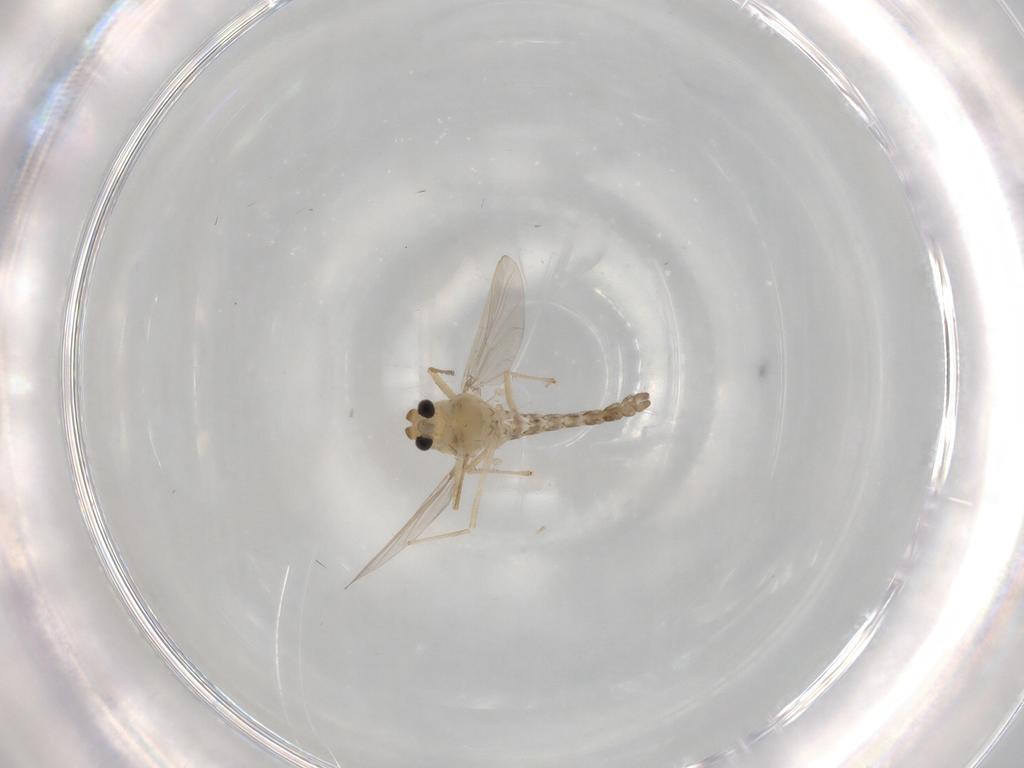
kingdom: Animalia
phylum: Arthropoda
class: Insecta
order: Diptera
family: Chironomidae
